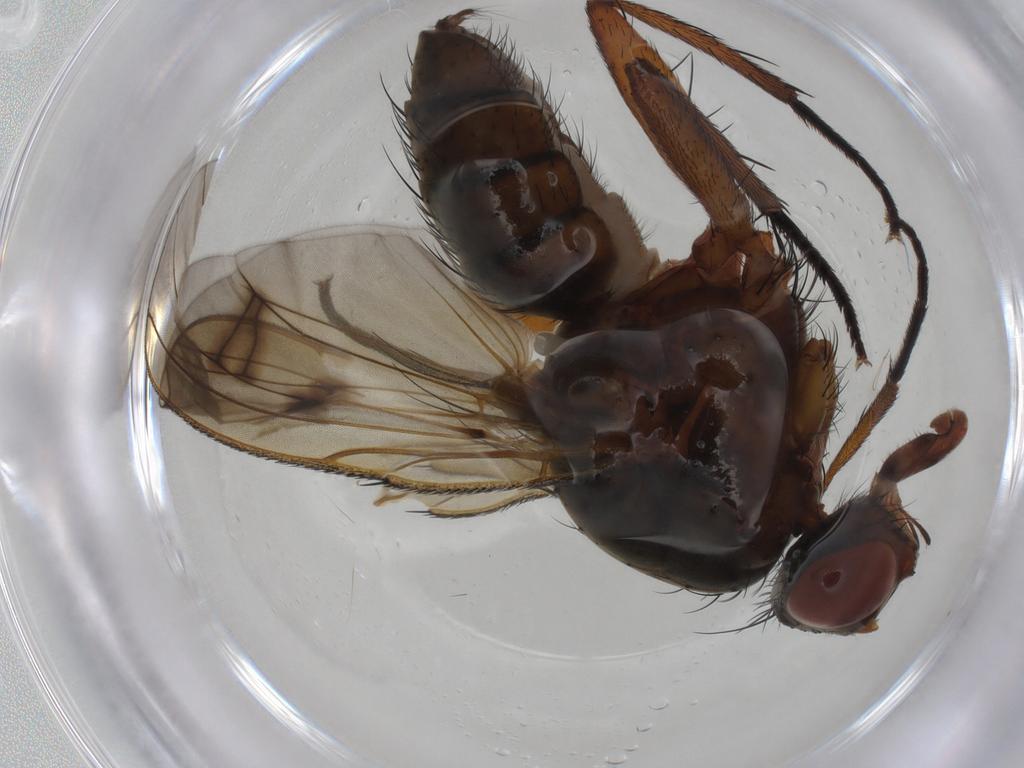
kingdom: Animalia
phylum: Arthropoda
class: Insecta
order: Diptera
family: Anthomyiidae
